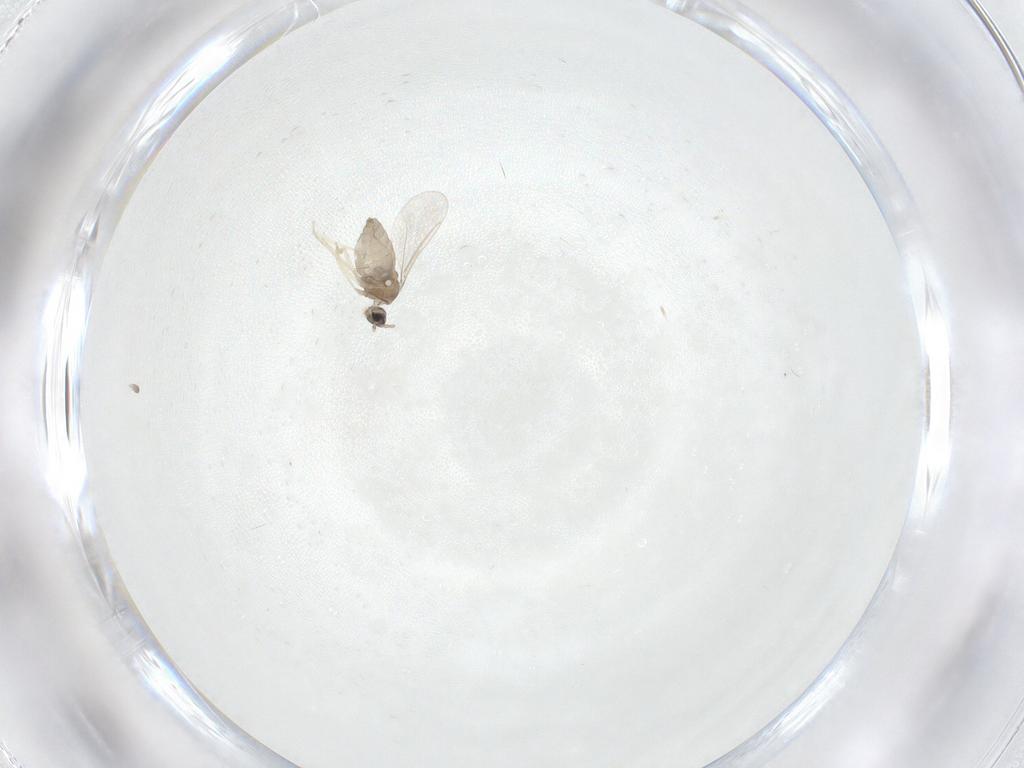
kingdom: Animalia
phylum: Arthropoda
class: Insecta
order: Diptera
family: Cecidomyiidae
